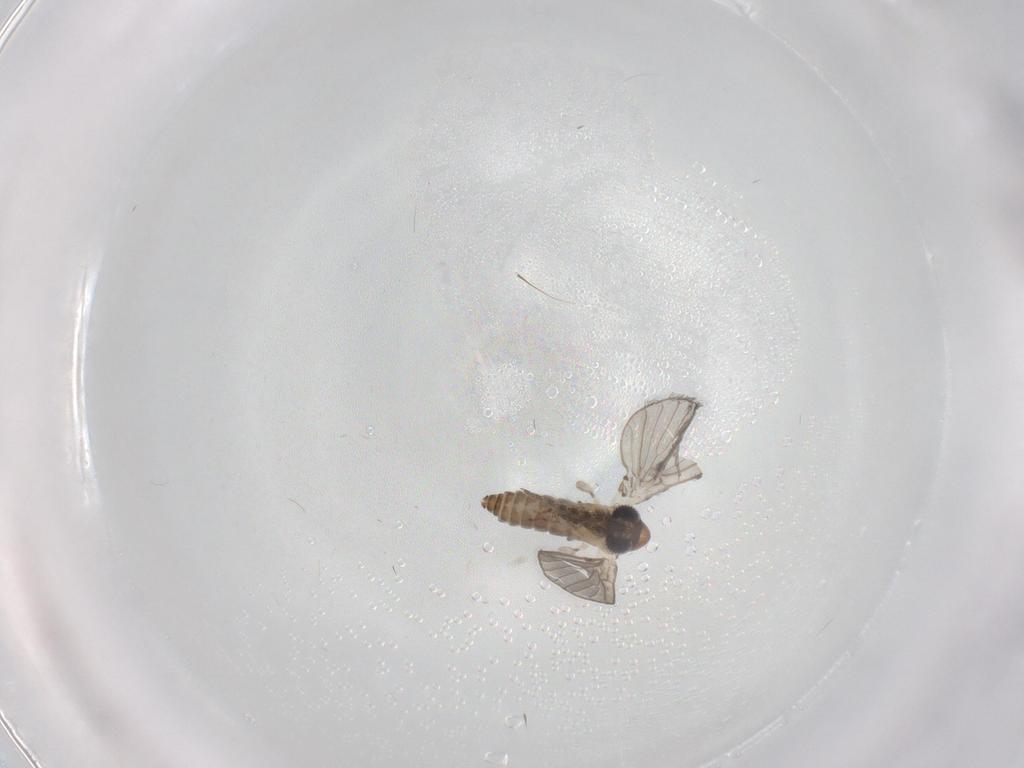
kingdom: Animalia
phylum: Arthropoda
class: Insecta
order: Diptera
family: Psychodidae
